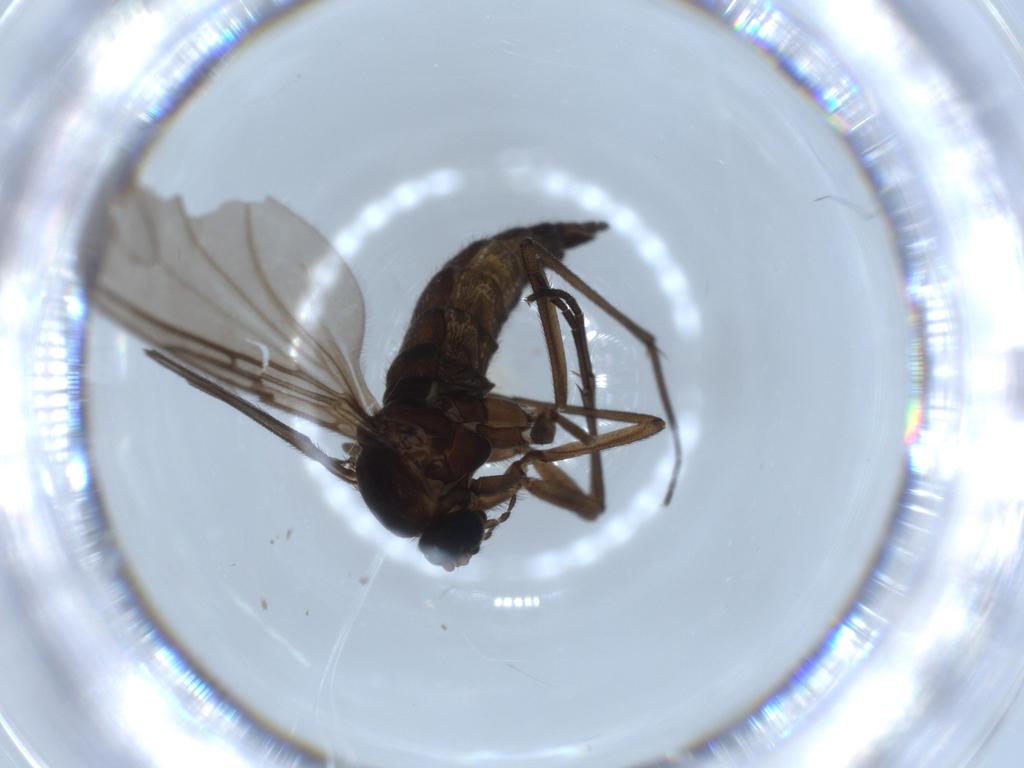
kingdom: Animalia
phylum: Arthropoda
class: Insecta
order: Diptera
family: Sciaridae
